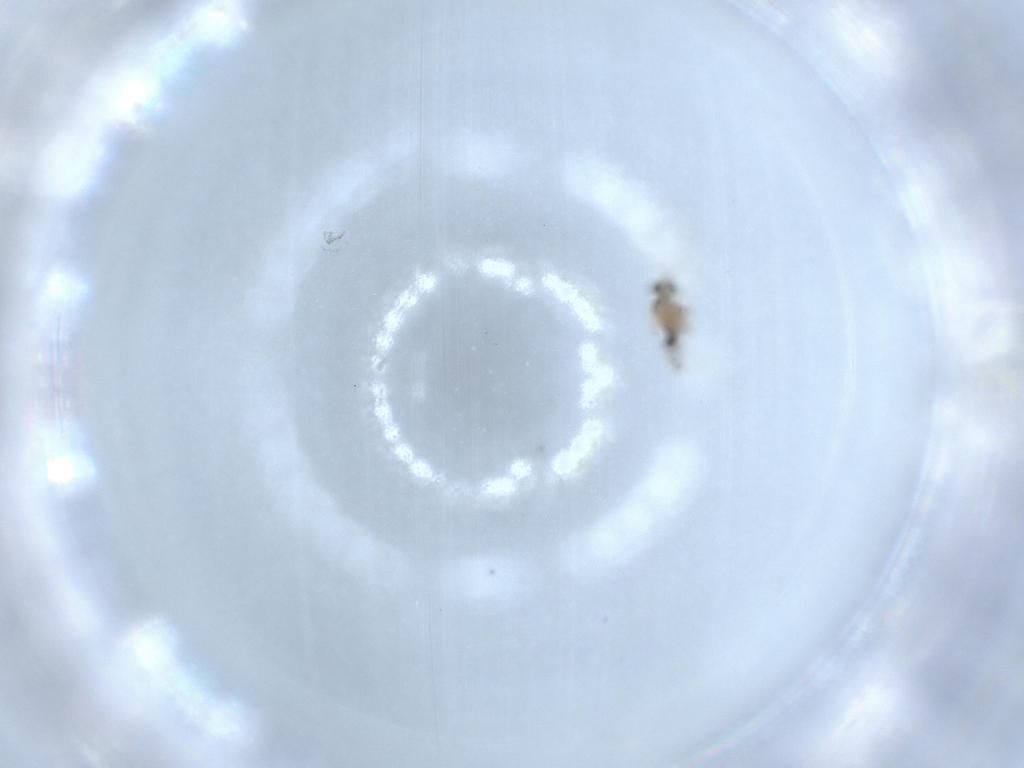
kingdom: Animalia
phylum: Arthropoda
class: Insecta
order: Diptera
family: Cecidomyiidae
